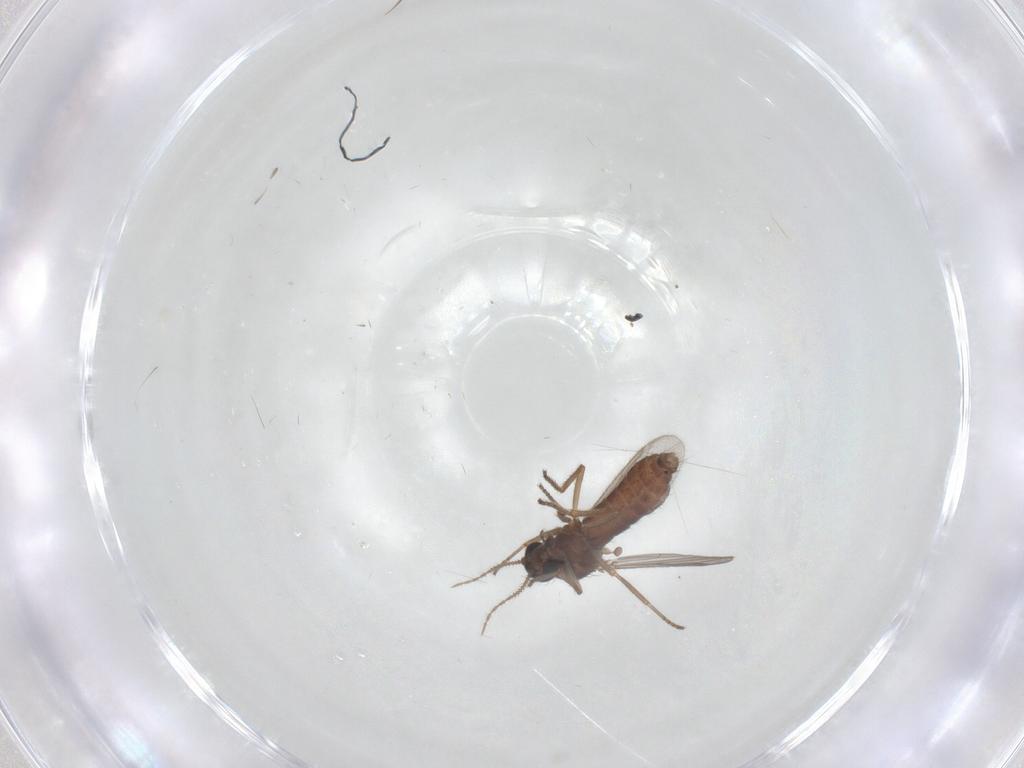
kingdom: Animalia
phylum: Arthropoda
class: Insecta
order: Diptera
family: Ceratopogonidae
